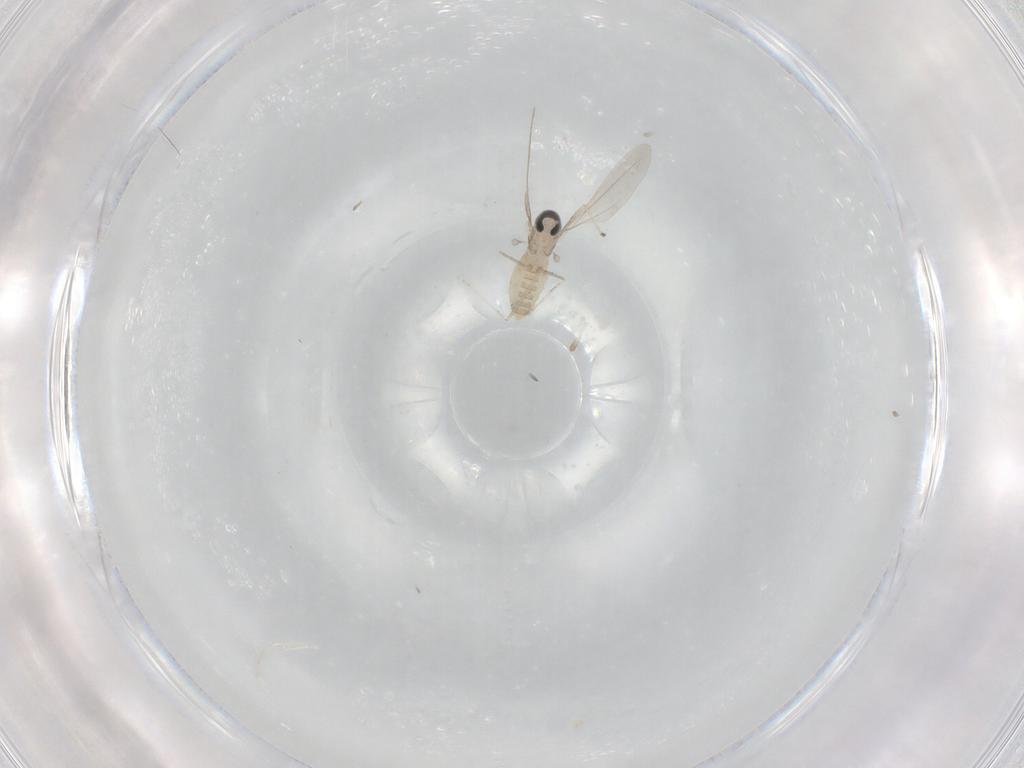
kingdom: Animalia
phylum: Arthropoda
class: Insecta
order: Diptera
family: Cecidomyiidae
